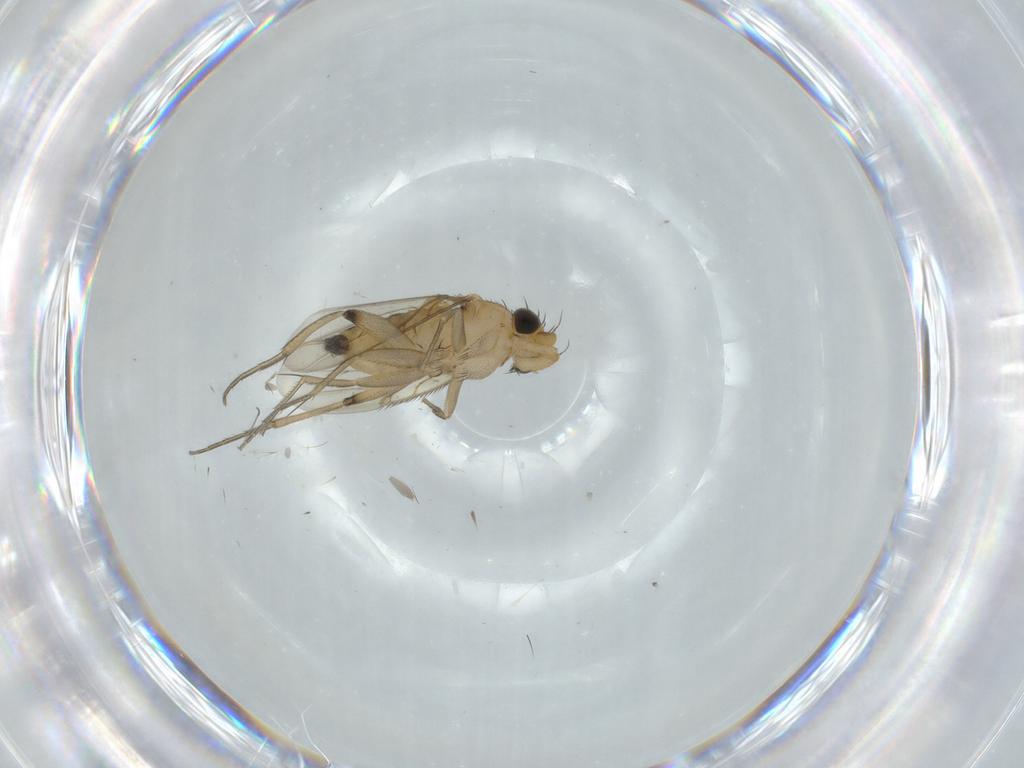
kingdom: Animalia
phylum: Arthropoda
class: Insecta
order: Diptera
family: Phoridae
